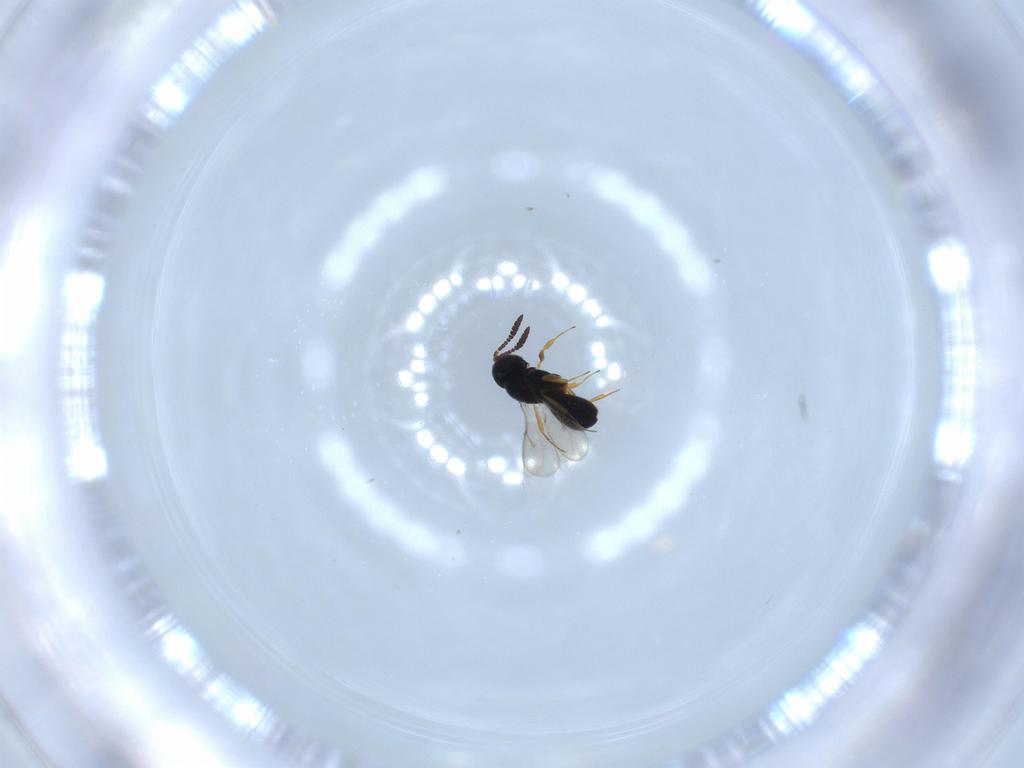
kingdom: Animalia
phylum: Arthropoda
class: Insecta
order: Hymenoptera
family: Scelionidae
